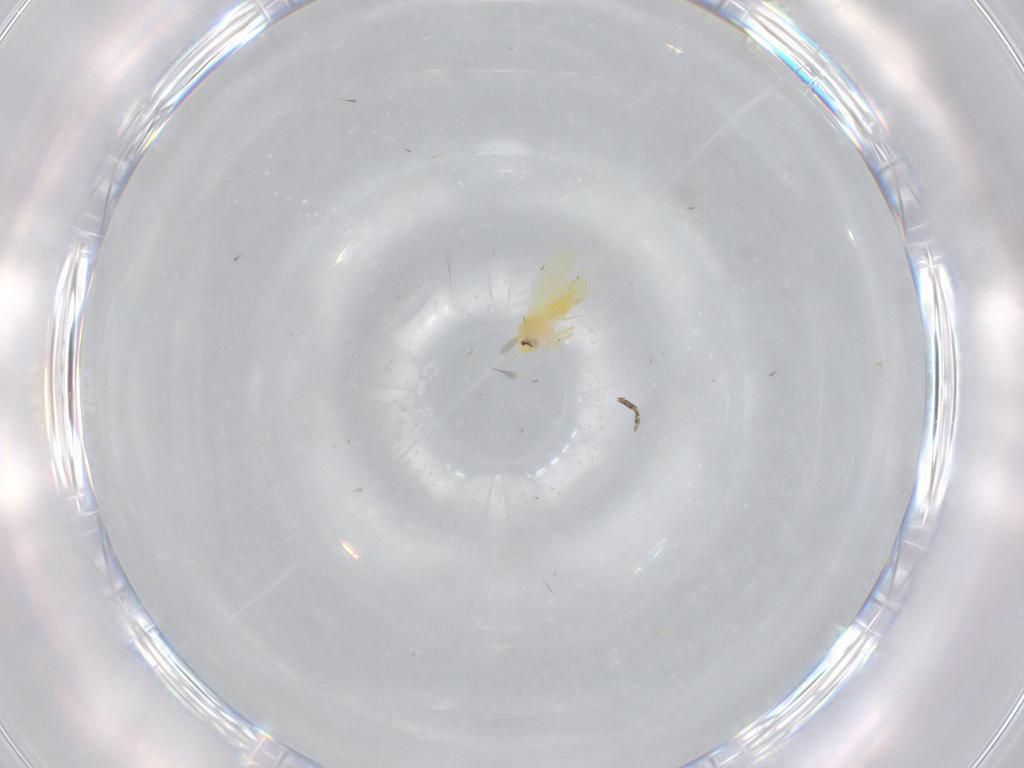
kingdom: Animalia
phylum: Arthropoda
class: Insecta
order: Hemiptera
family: Aleyrodidae
